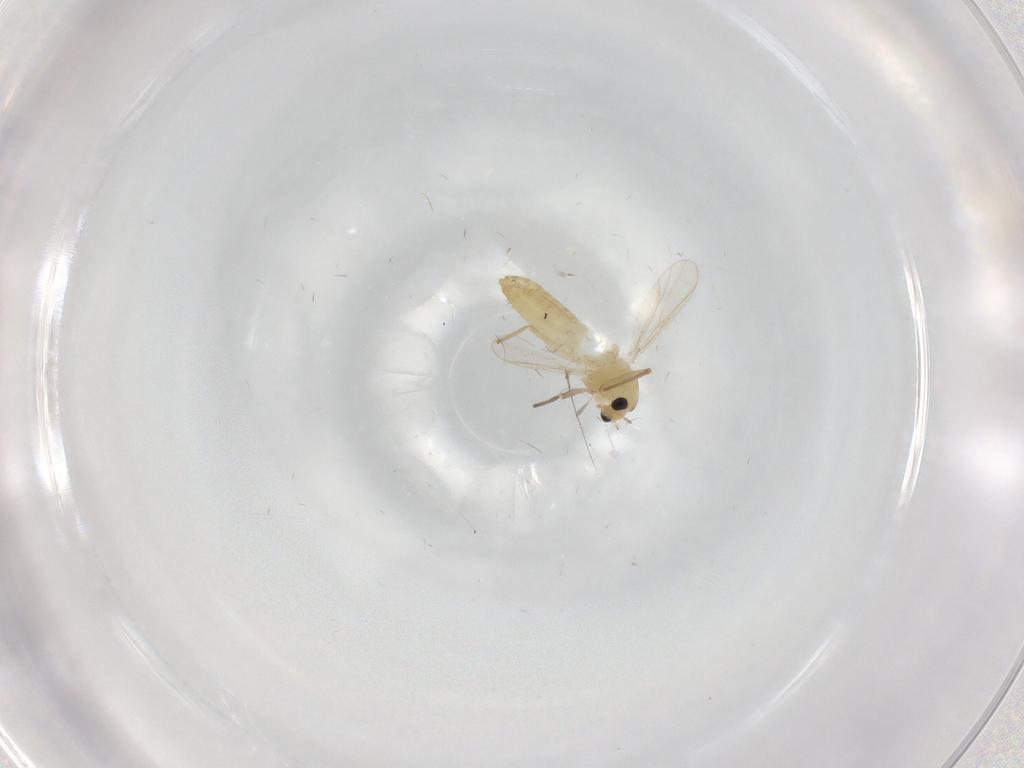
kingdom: Animalia
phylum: Arthropoda
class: Insecta
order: Diptera
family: Chironomidae
